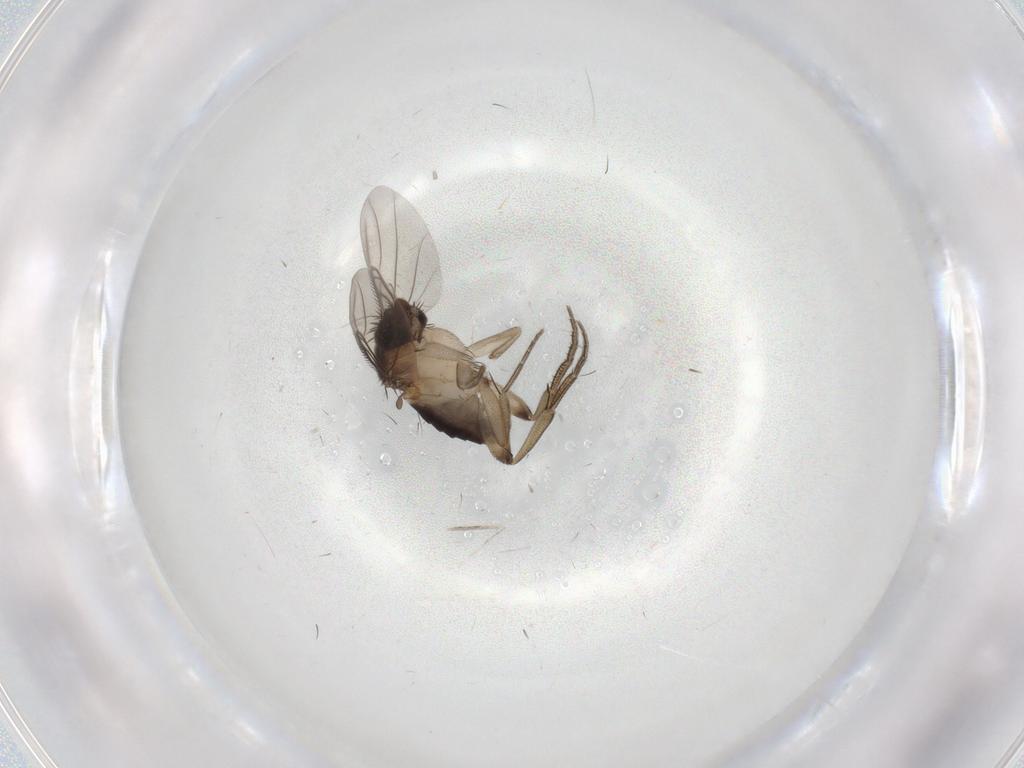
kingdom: Animalia
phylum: Arthropoda
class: Insecta
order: Diptera
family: Phoridae
